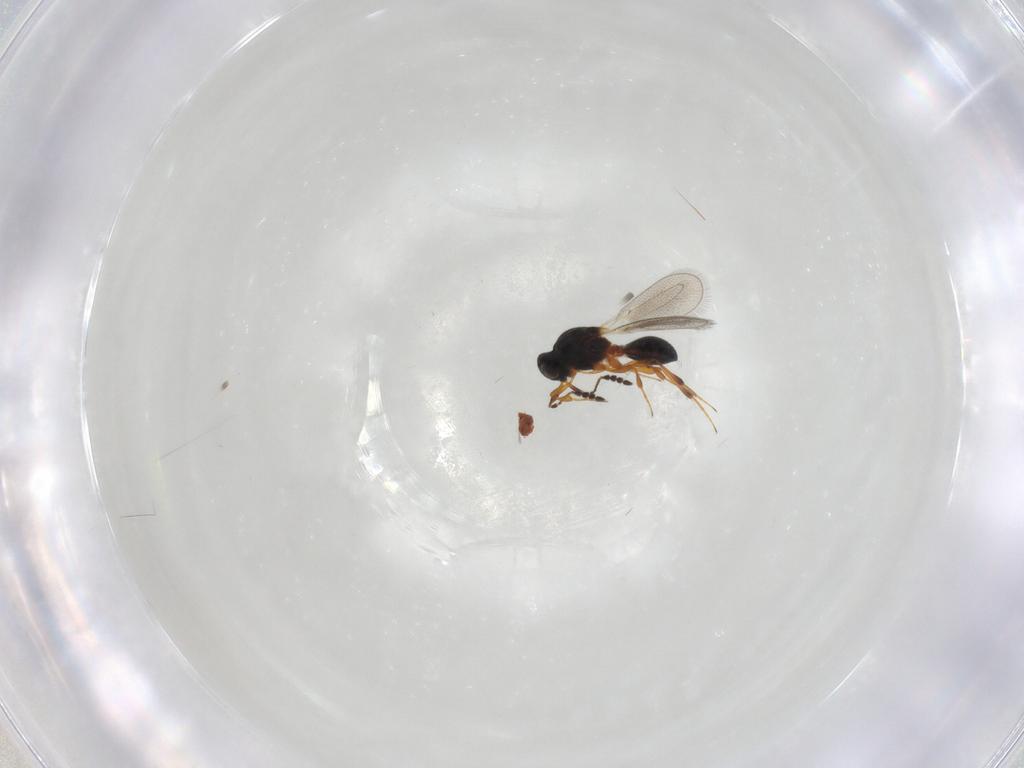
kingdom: Animalia
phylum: Arthropoda
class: Insecta
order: Hymenoptera
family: Platygastridae
